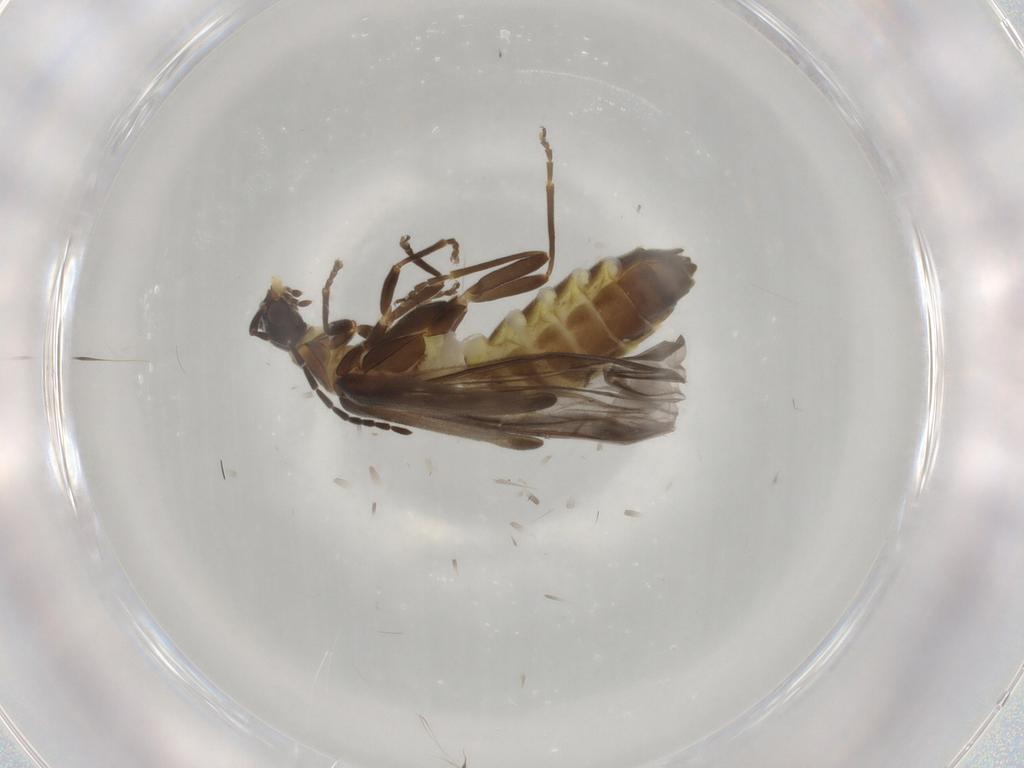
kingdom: Animalia
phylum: Arthropoda
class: Insecta
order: Coleoptera
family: Cantharidae
